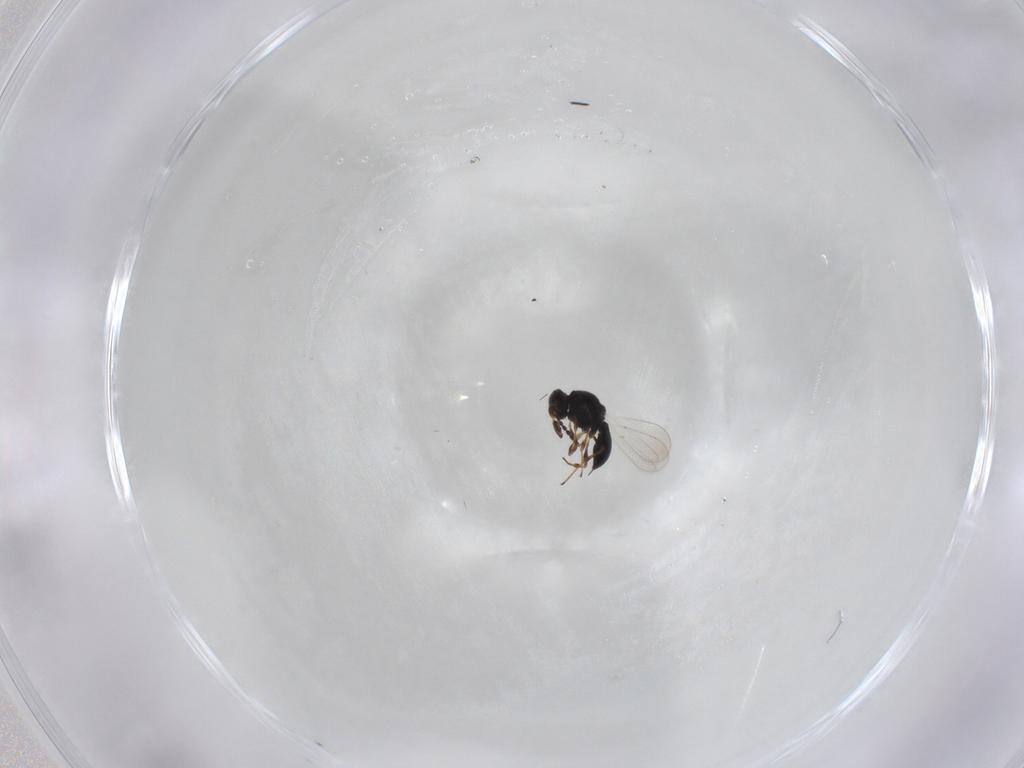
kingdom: Animalia
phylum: Arthropoda
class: Insecta
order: Hymenoptera
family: Platygastridae
